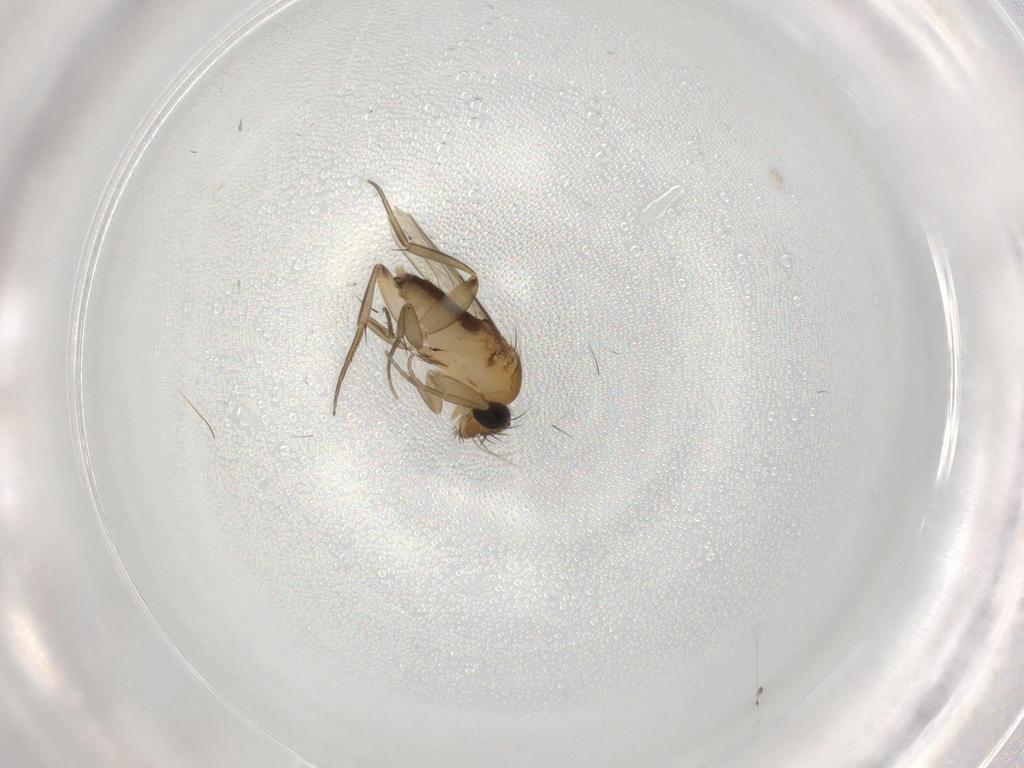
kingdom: Animalia
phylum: Arthropoda
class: Insecta
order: Diptera
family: Phoridae
